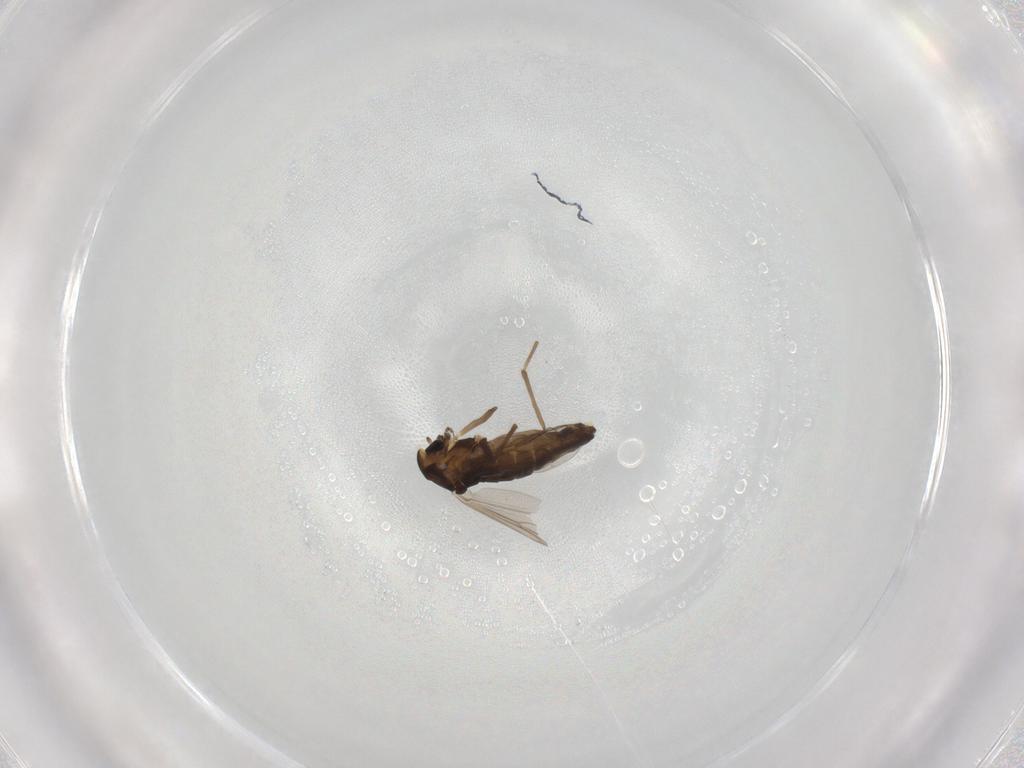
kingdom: Animalia
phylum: Arthropoda
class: Insecta
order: Diptera
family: Chironomidae
